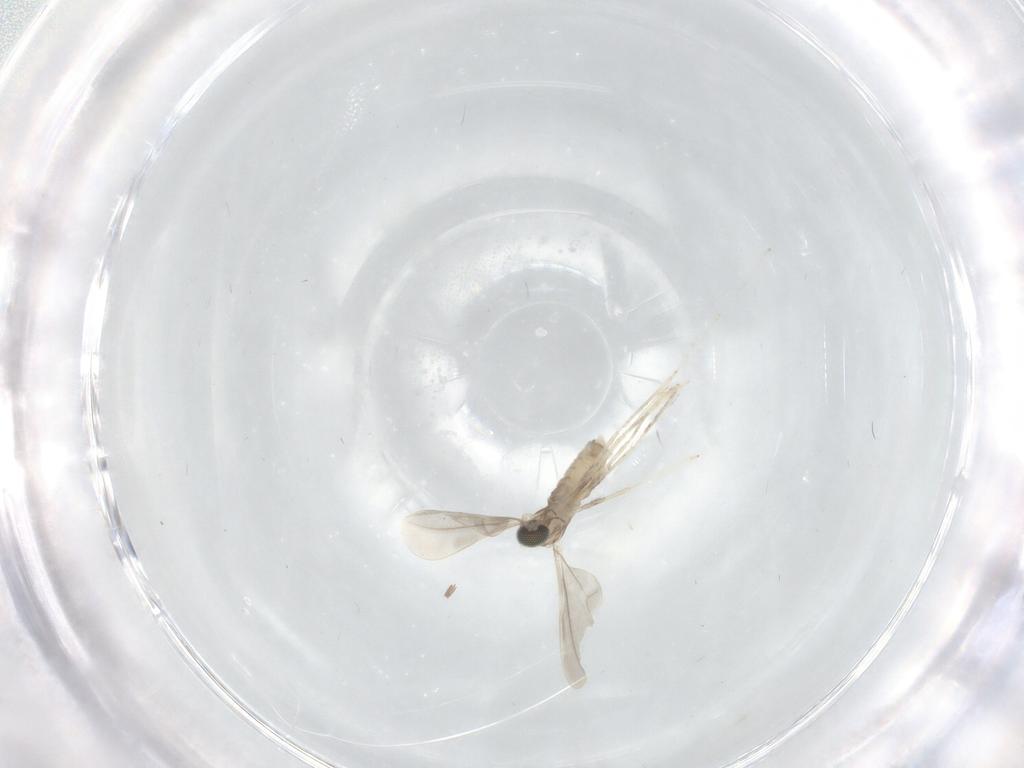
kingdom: Animalia
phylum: Arthropoda
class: Insecta
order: Diptera
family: Cecidomyiidae
